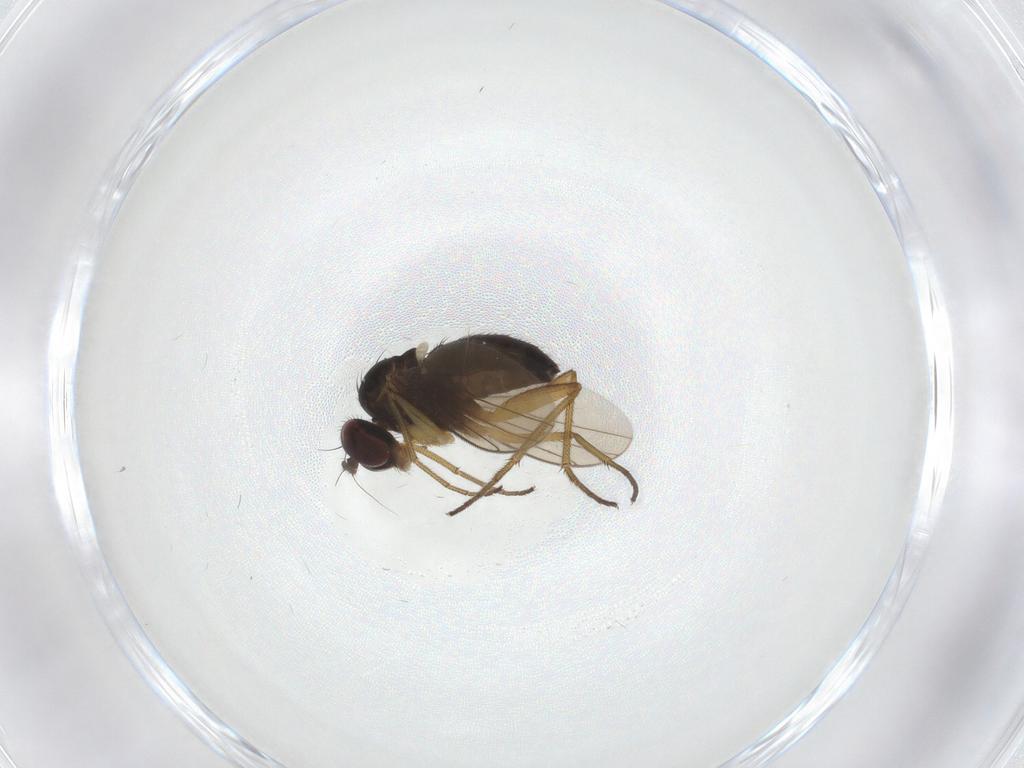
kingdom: Animalia
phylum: Arthropoda
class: Insecta
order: Diptera
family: Dolichopodidae
